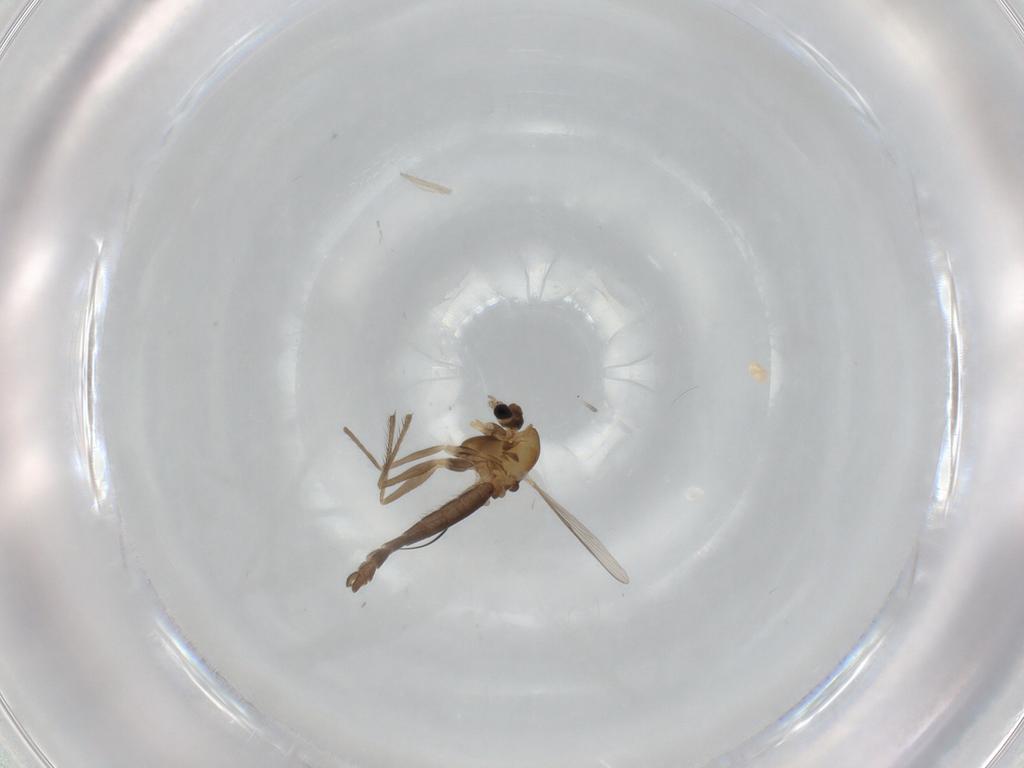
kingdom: Animalia
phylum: Arthropoda
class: Insecta
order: Diptera
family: Chironomidae
